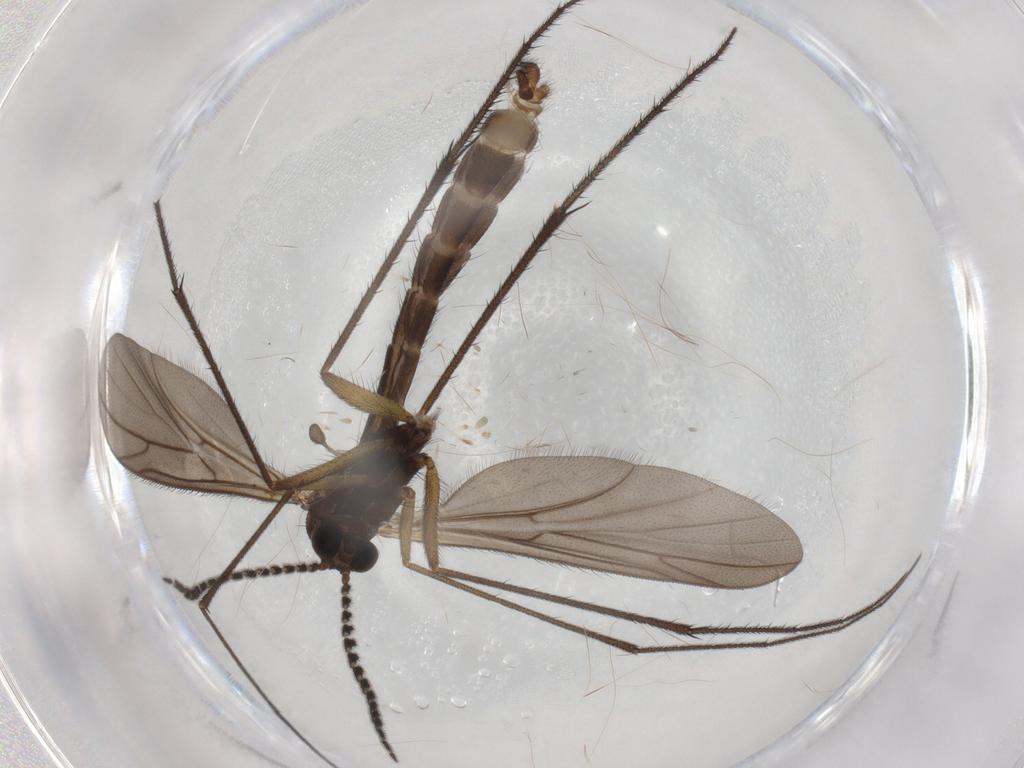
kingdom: Animalia
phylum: Arthropoda
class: Insecta
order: Diptera
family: Ditomyiidae
